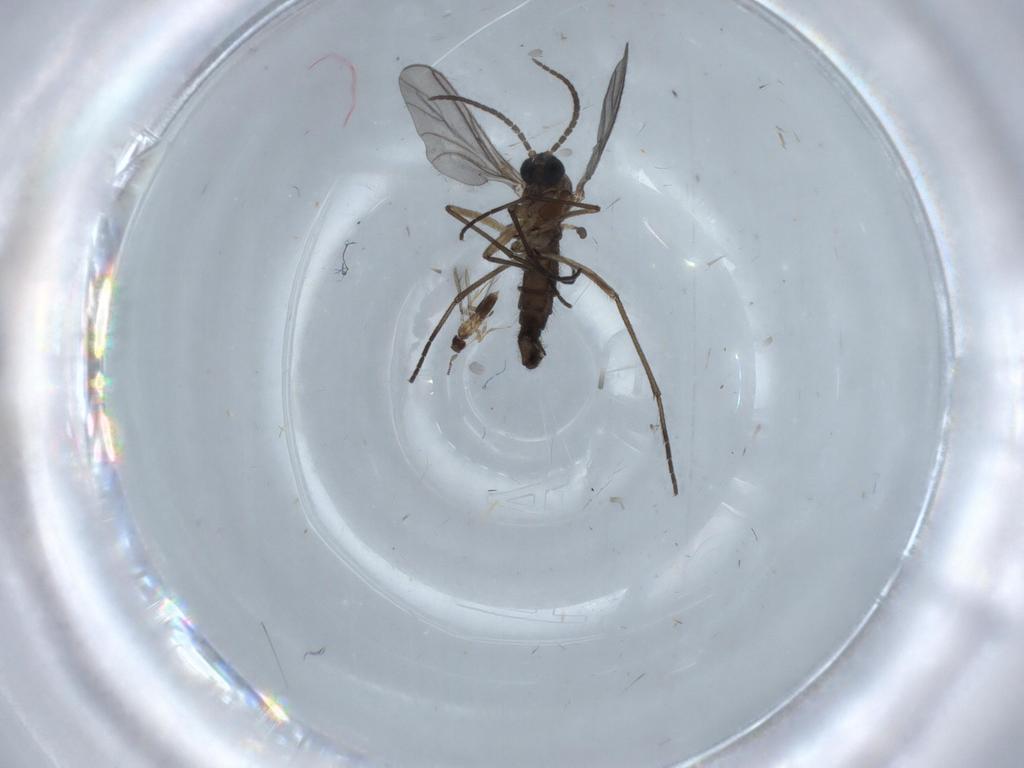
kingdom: Animalia
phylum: Arthropoda
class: Insecta
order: Diptera
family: Sciaridae
